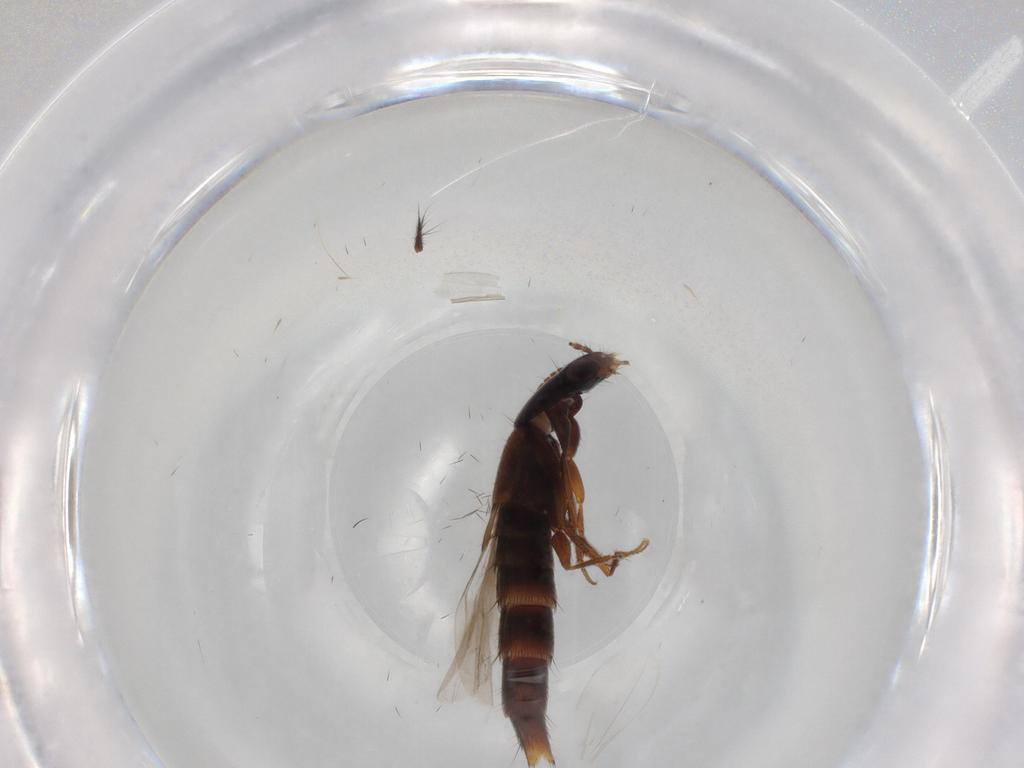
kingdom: Animalia
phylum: Arthropoda
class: Insecta
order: Coleoptera
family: Staphylinidae
